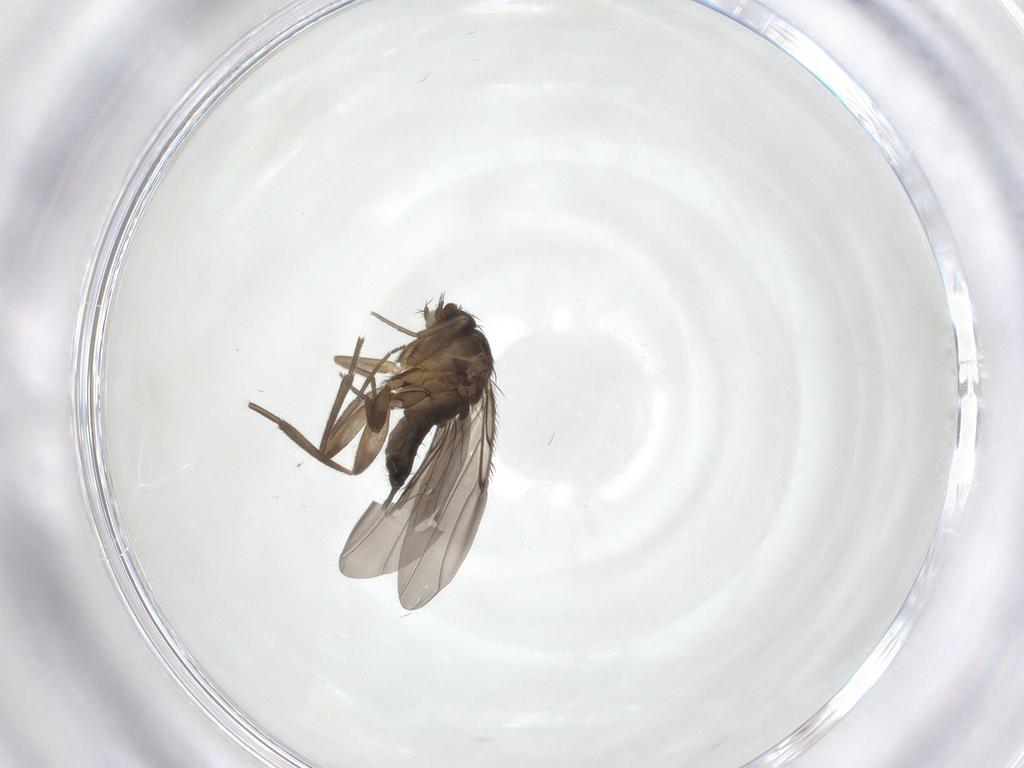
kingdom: Animalia
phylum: Arthropoda
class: Insecta
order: Diptera
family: Phoridae
